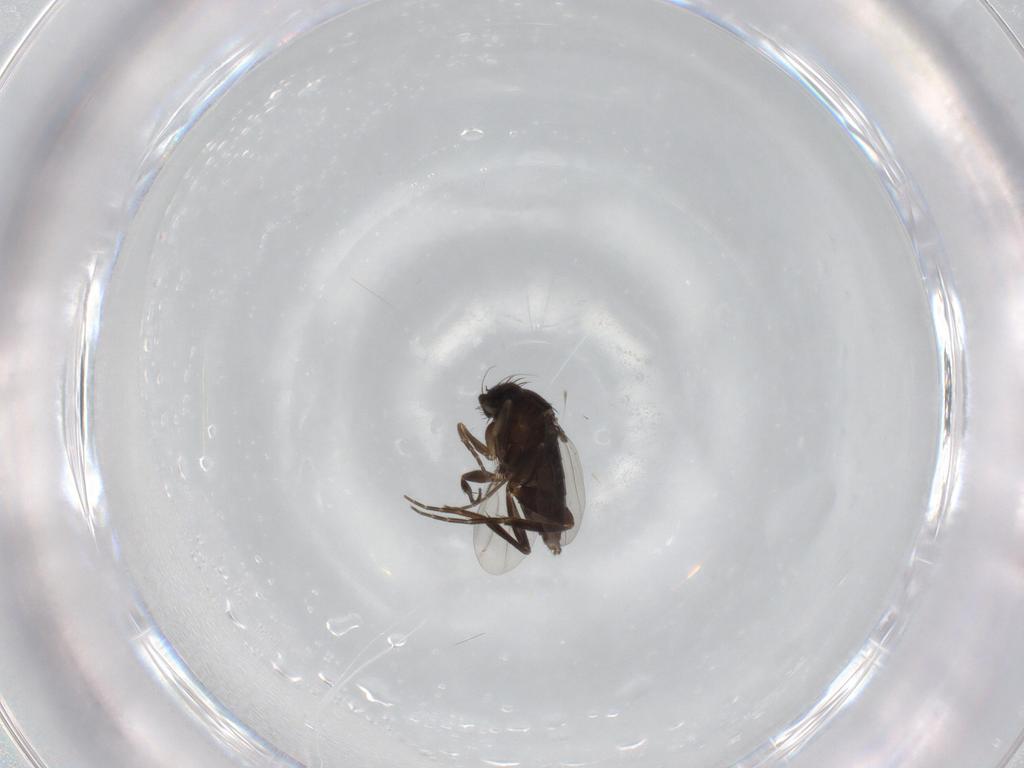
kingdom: Animalia
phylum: Arthropoda
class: Insecta
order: Diptera
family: Phoridae
